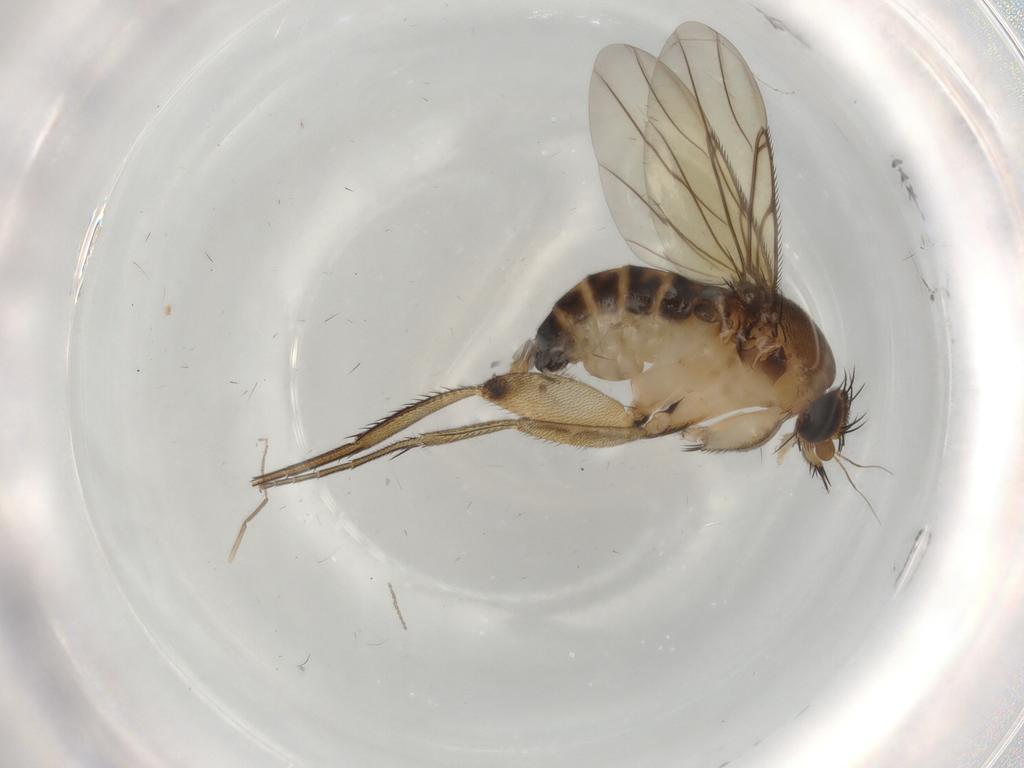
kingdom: Animalia
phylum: Arthropoda
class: Insecta
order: Diptera
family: Phoridae
